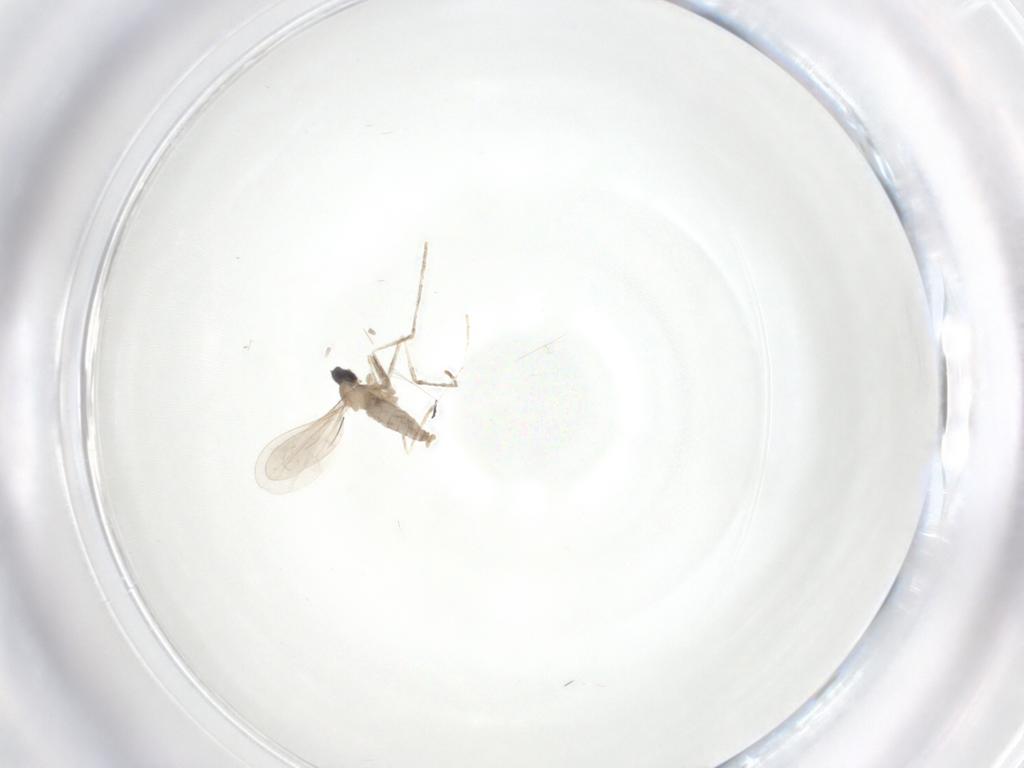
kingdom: Animalia
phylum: Arthropoda
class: Insecta
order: Diptera
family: Cecidomyiidae
